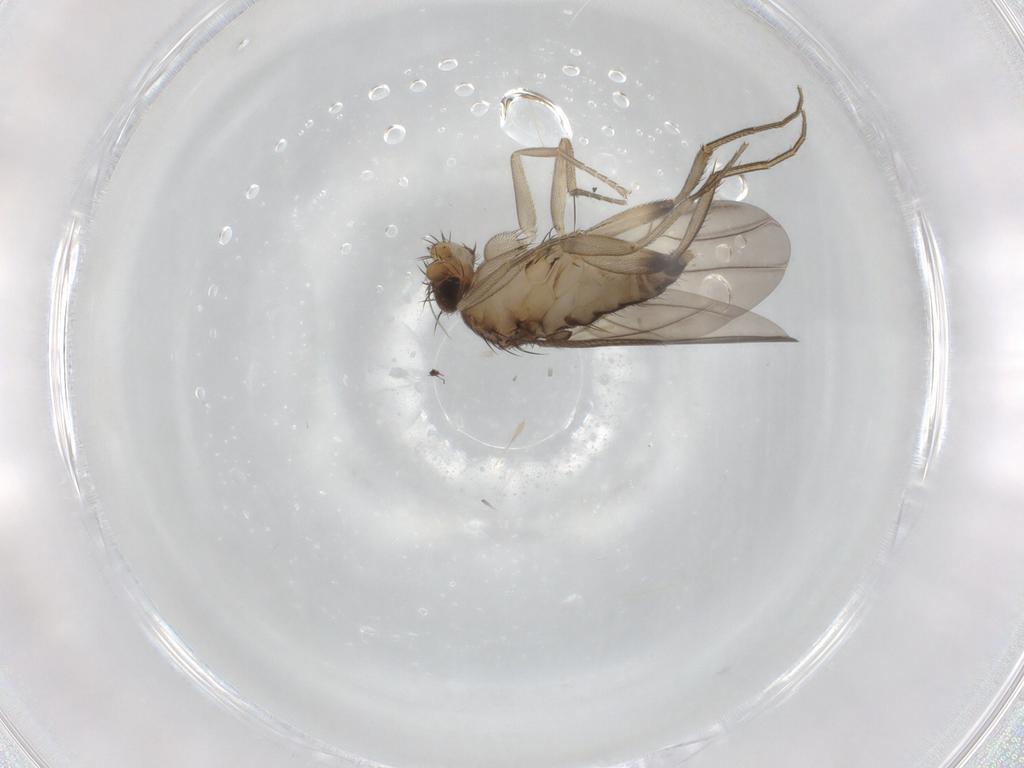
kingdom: Animalia
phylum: Arthropoda
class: Insecta
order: Diptera
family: Phoridae
